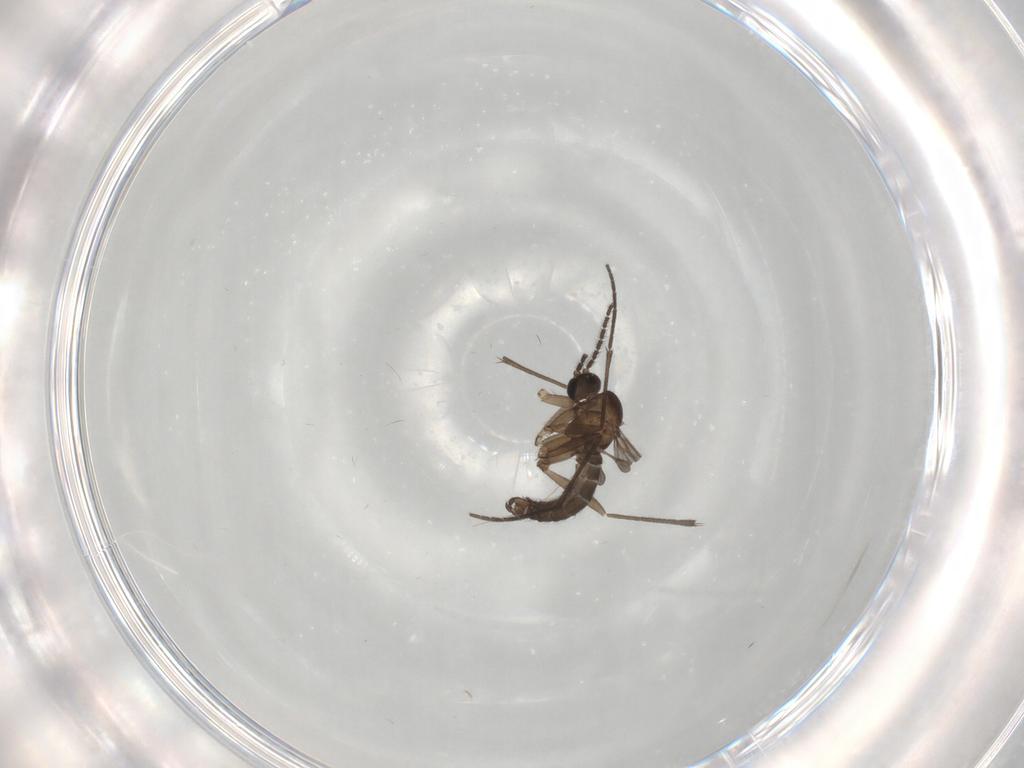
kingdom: Animalia
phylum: Arthropoda
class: Insecta
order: Diptera
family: Sciaridae
